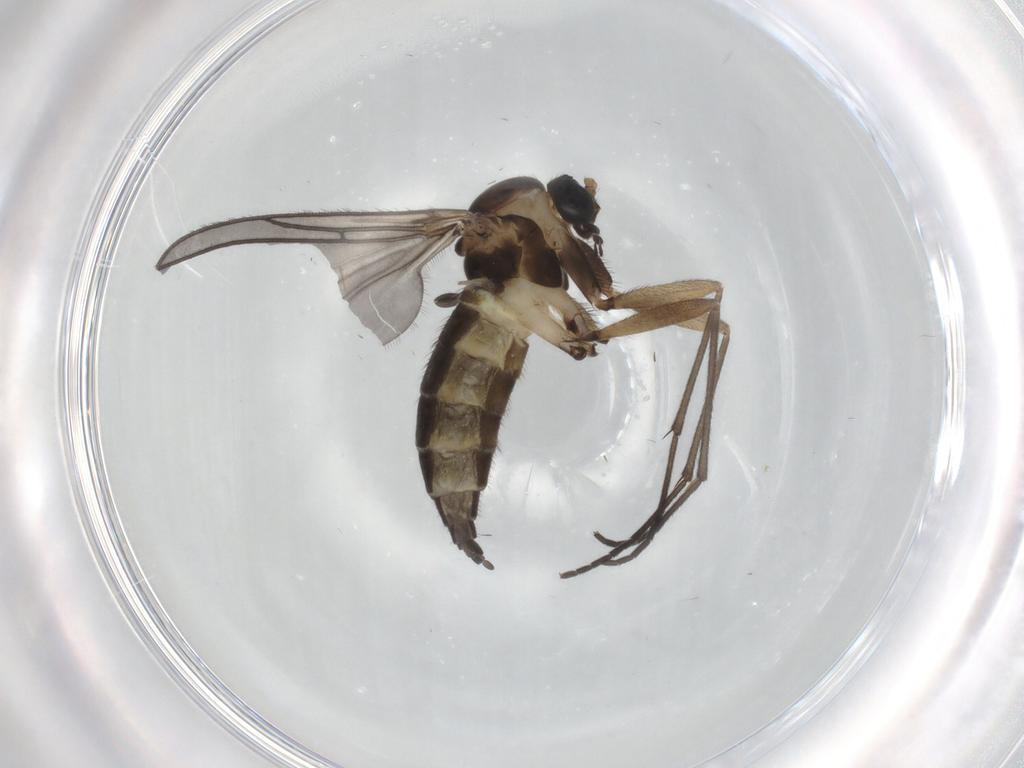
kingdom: Animalia
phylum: Arthropoda
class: Insecta
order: Diptera
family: Sciaridae
